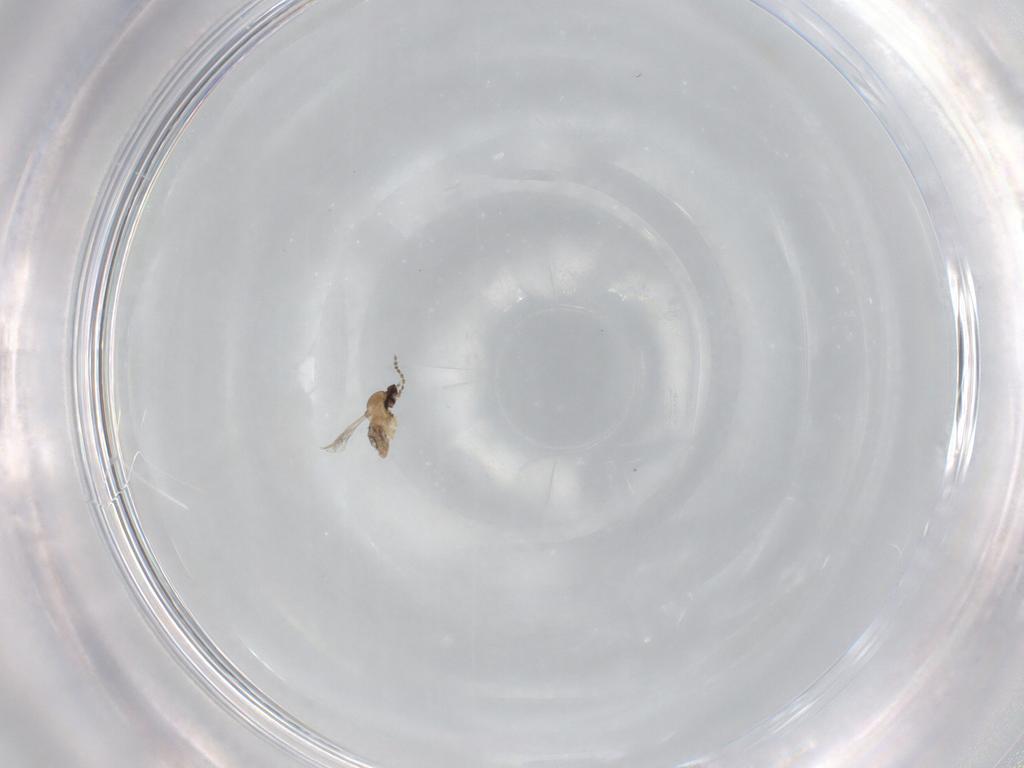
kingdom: Animalia
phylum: Arthropoda
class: Insecta
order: Diptera
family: Cecidomyiidae
